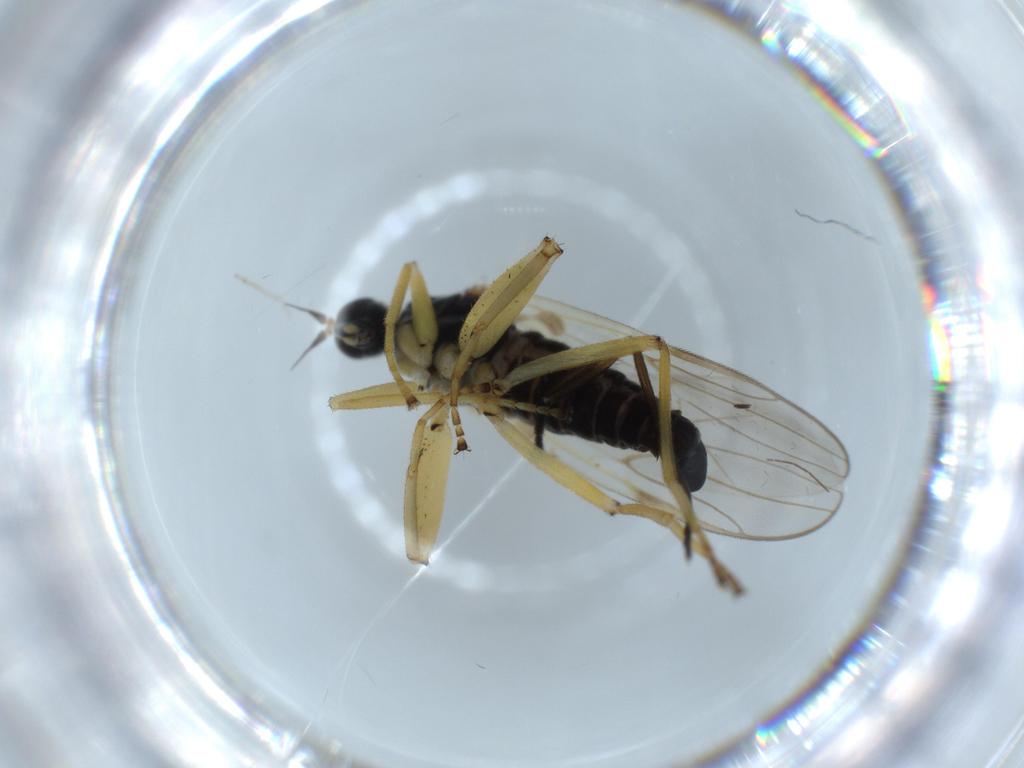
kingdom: Animalia
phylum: Arthropoda
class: Insecta
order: Diptera
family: Hybotidae
